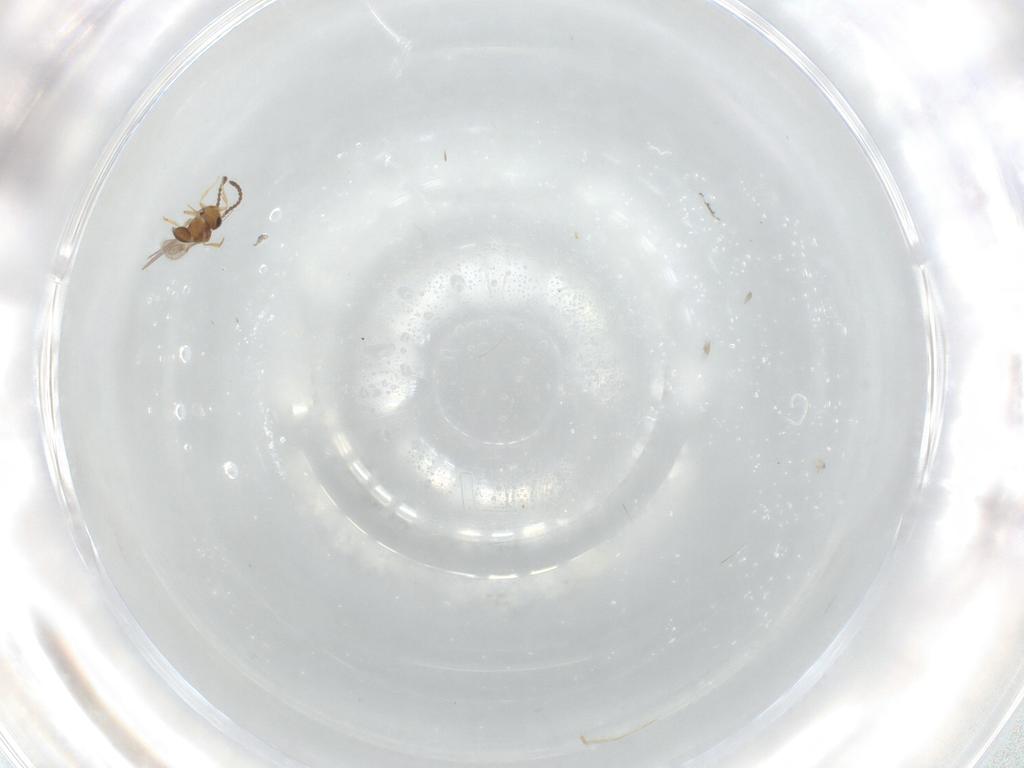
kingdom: Animalia
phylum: Arthropoda
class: Insecta
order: Hymenoptera
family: Scelionidae
